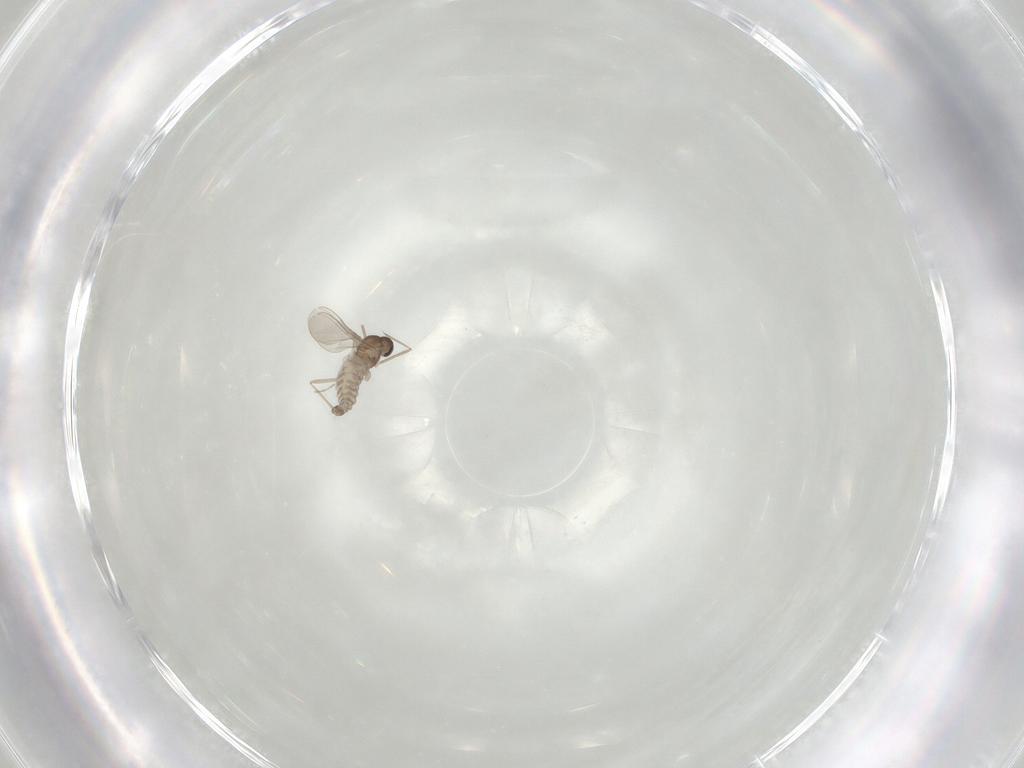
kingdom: Animalia
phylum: Arthropoda
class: Insecta
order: Diptera
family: Cecidomyiidae
